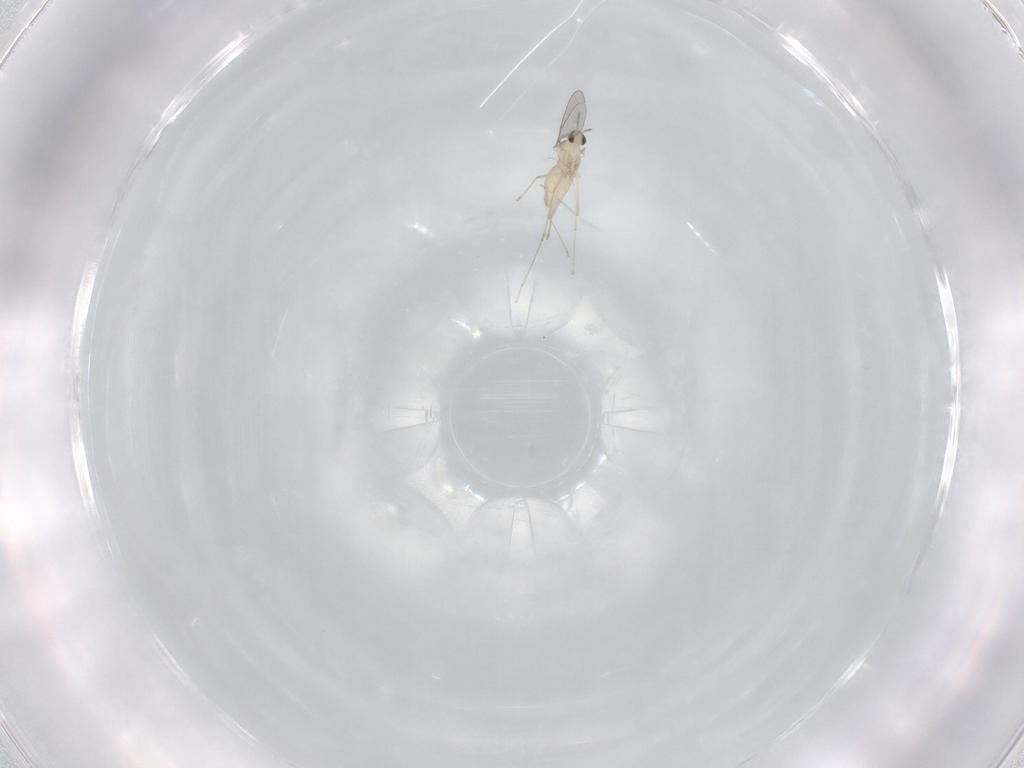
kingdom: Animalia
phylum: Arthropoda
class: Insecta
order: Diptera
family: Cecidomyiidae
